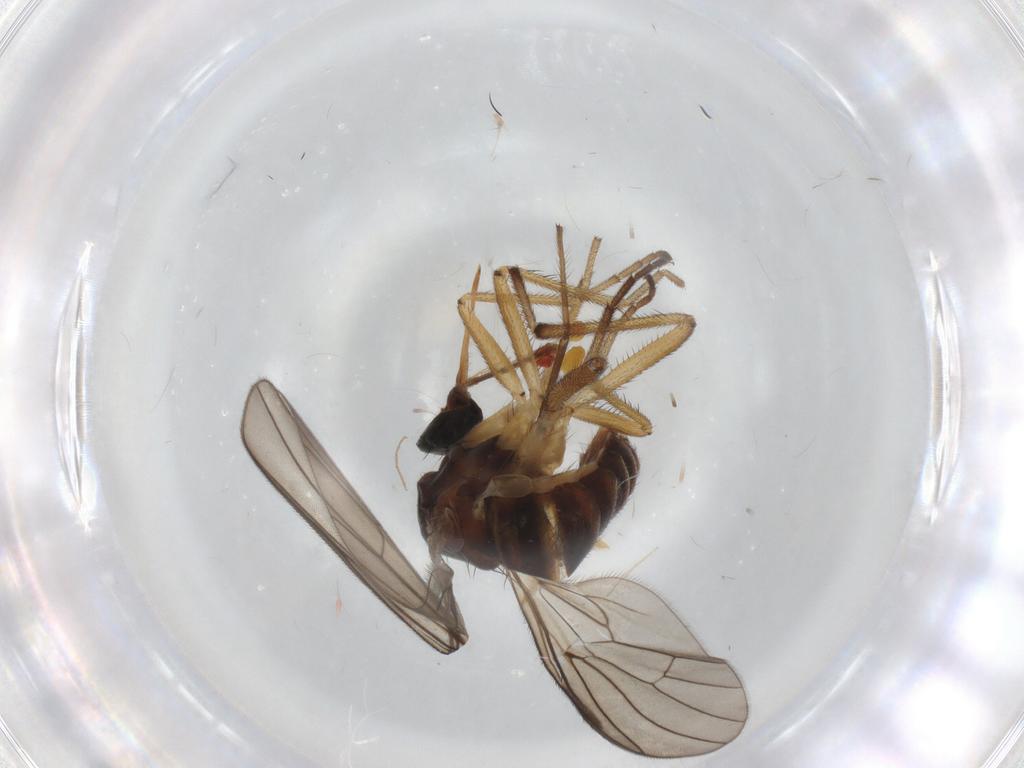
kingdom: Animalia
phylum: Arthropoda
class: Insecta
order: Diptera
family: Empididae
